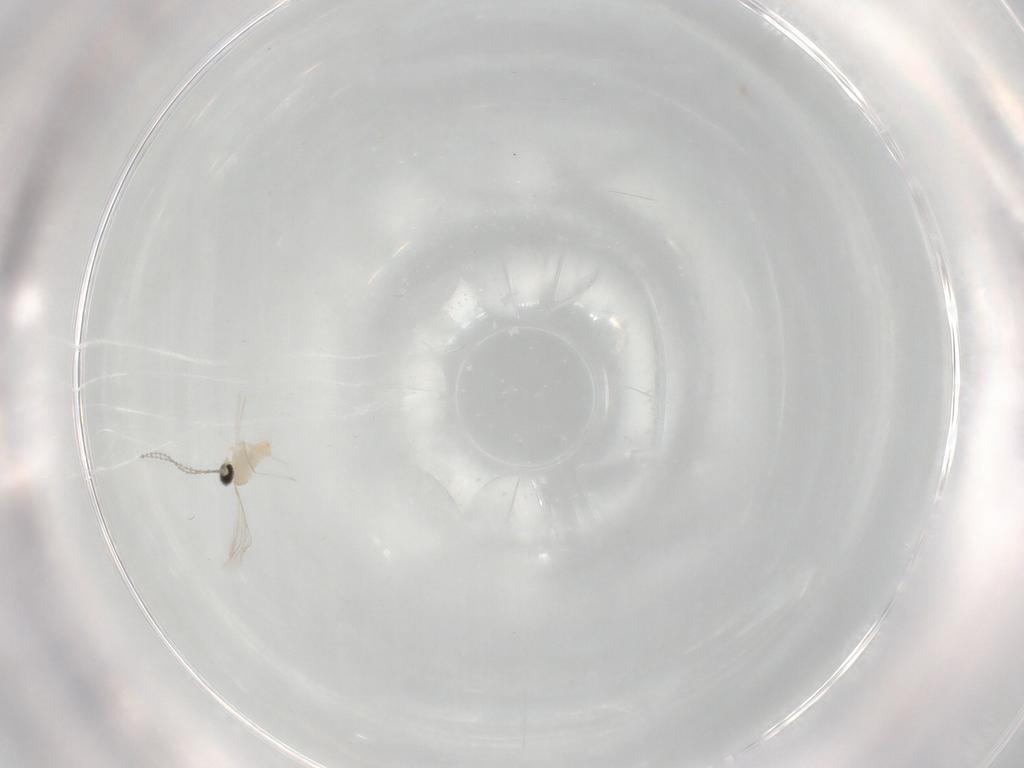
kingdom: Animalia
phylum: Arthropoda
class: Insecta
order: Diptera
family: Cecidomyiidae
